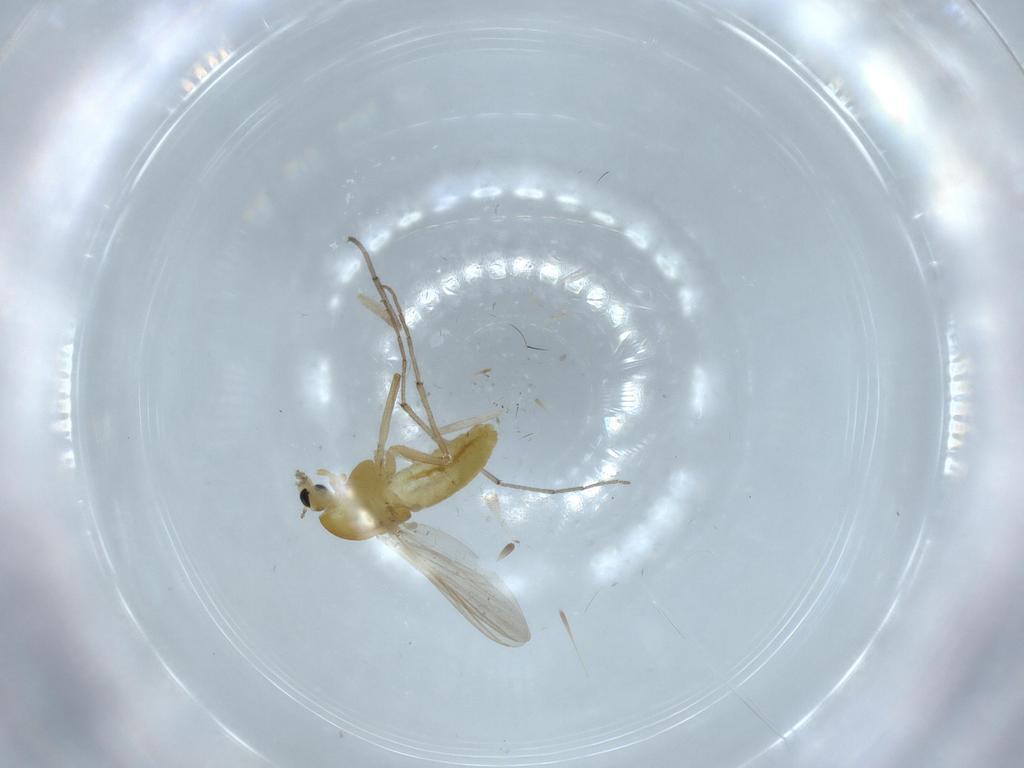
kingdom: Animalia
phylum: Arthropoda
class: Insecta
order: Diptera
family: Chironomidae
